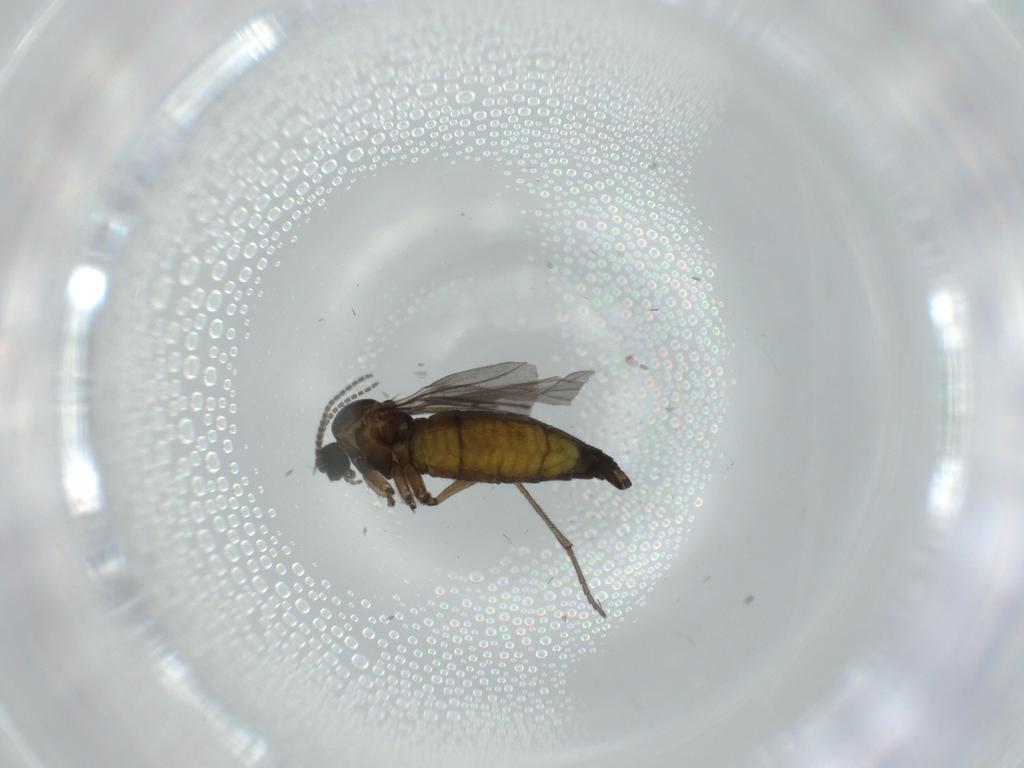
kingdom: Animalia
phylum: Arthropoda
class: Insecta
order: Diptera
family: Sciaridae
